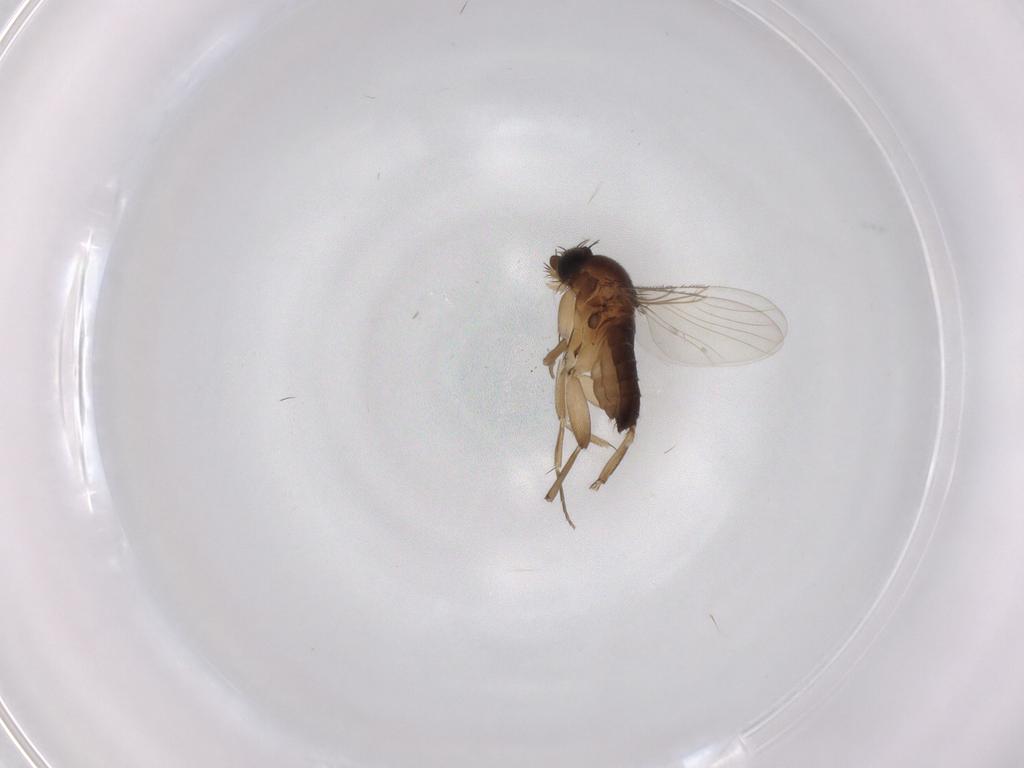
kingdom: Animalia
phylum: Arthropoda
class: Insecta
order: Diptera
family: Phoridae
